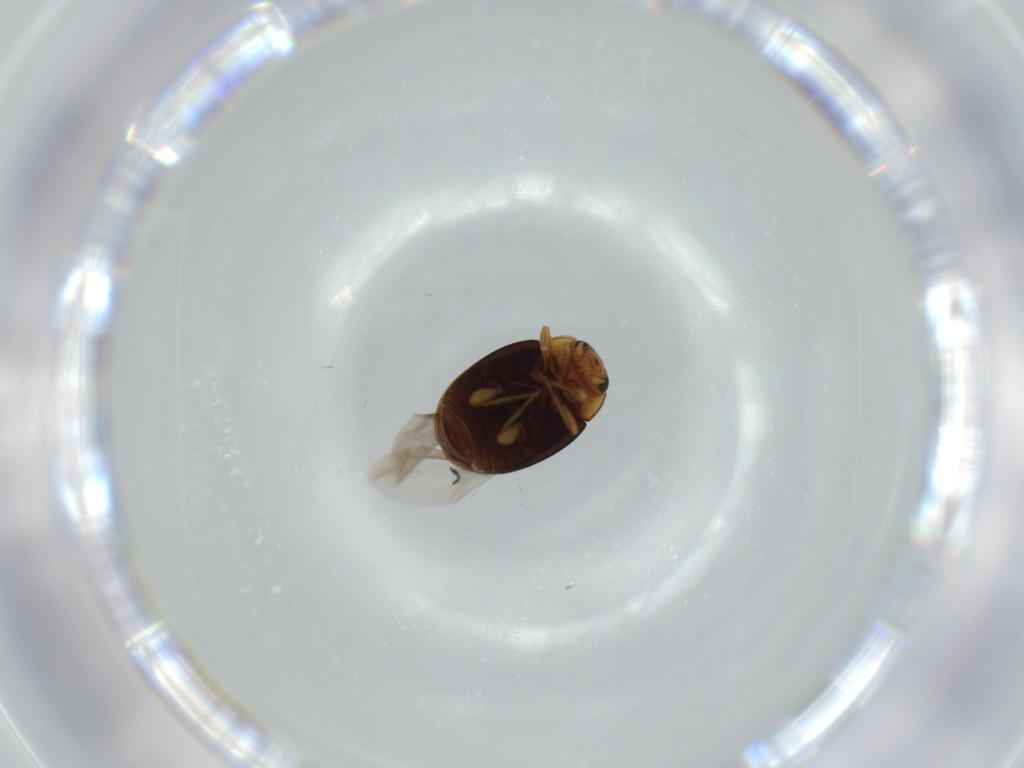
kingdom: Animalia
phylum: Arthropoda
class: Insecta
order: Coleoptera
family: Coccinellidae
